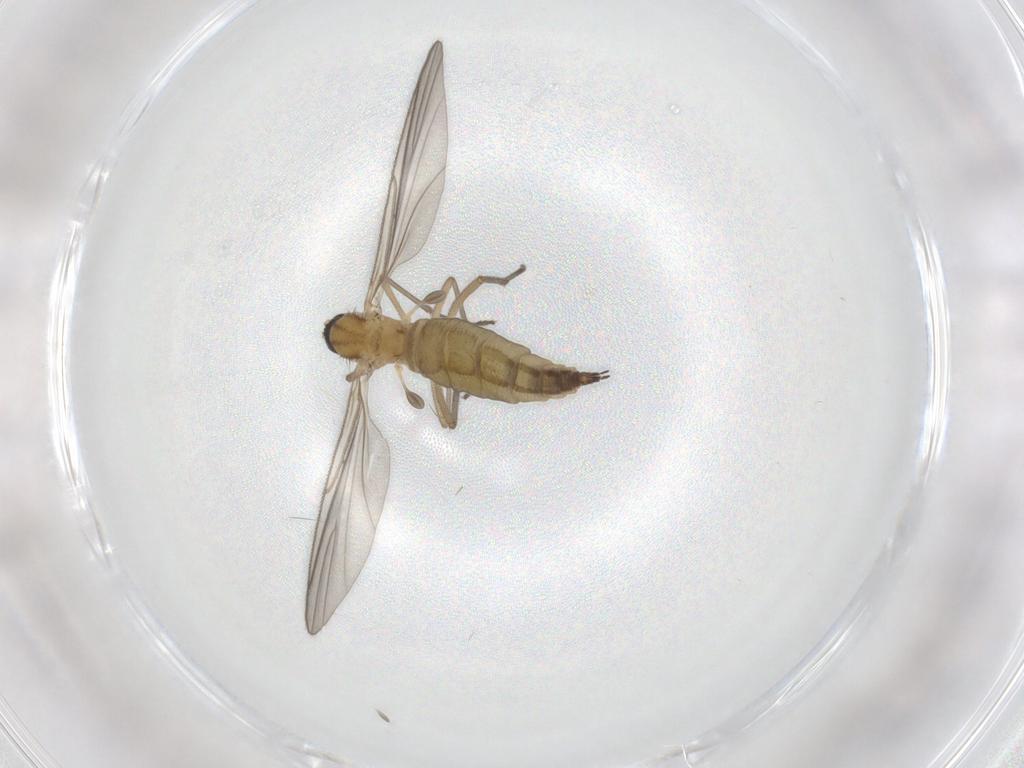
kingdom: Animalia
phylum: Arthropoda
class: Insecta
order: Diptera
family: Sciaridae
